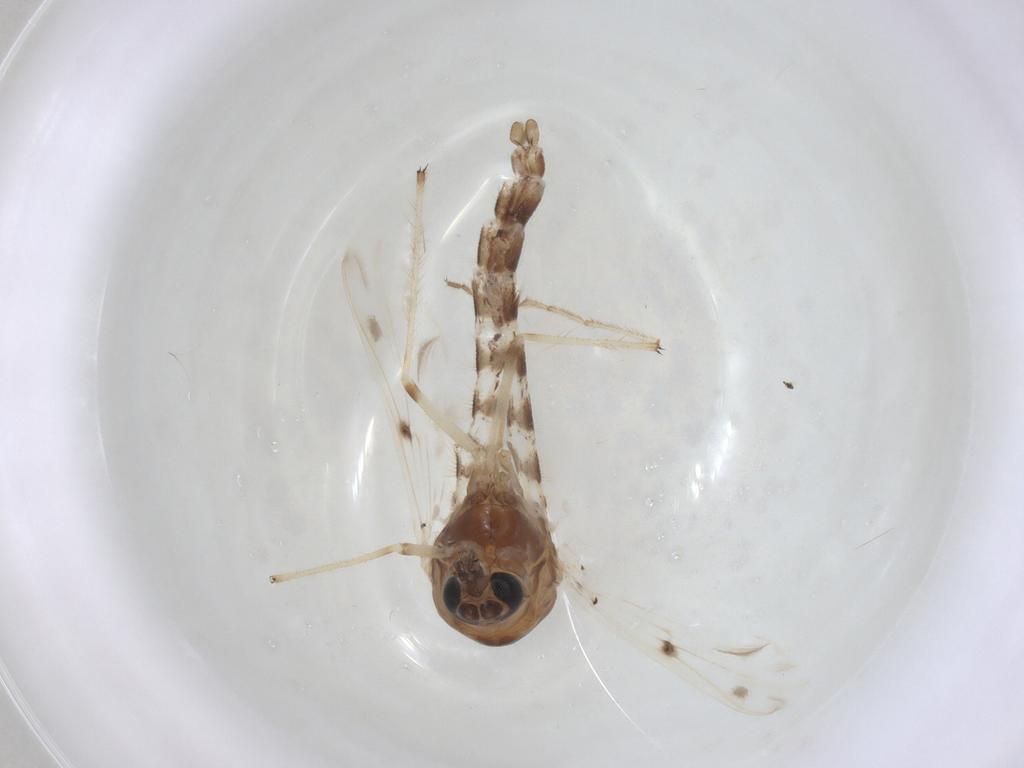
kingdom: Animalia
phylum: Arthropoda
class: Insecta
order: Diptera
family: Chironomidae
